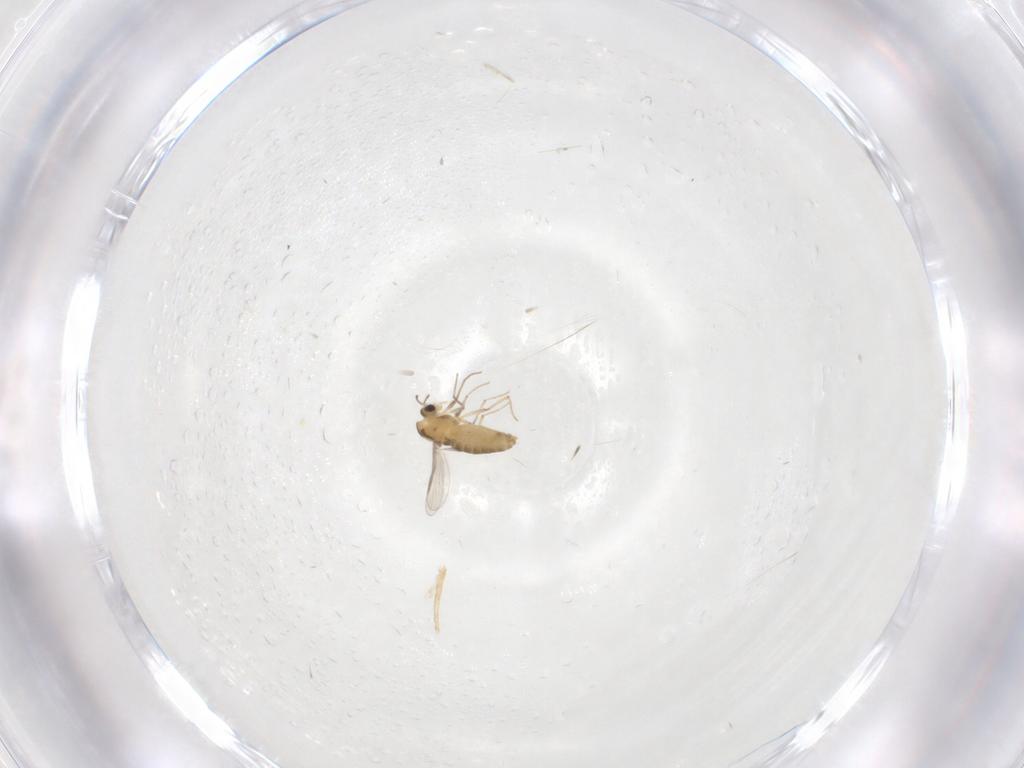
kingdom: Animalia
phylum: Arthropoda
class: Insecta
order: Diptera
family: Chironomidae
